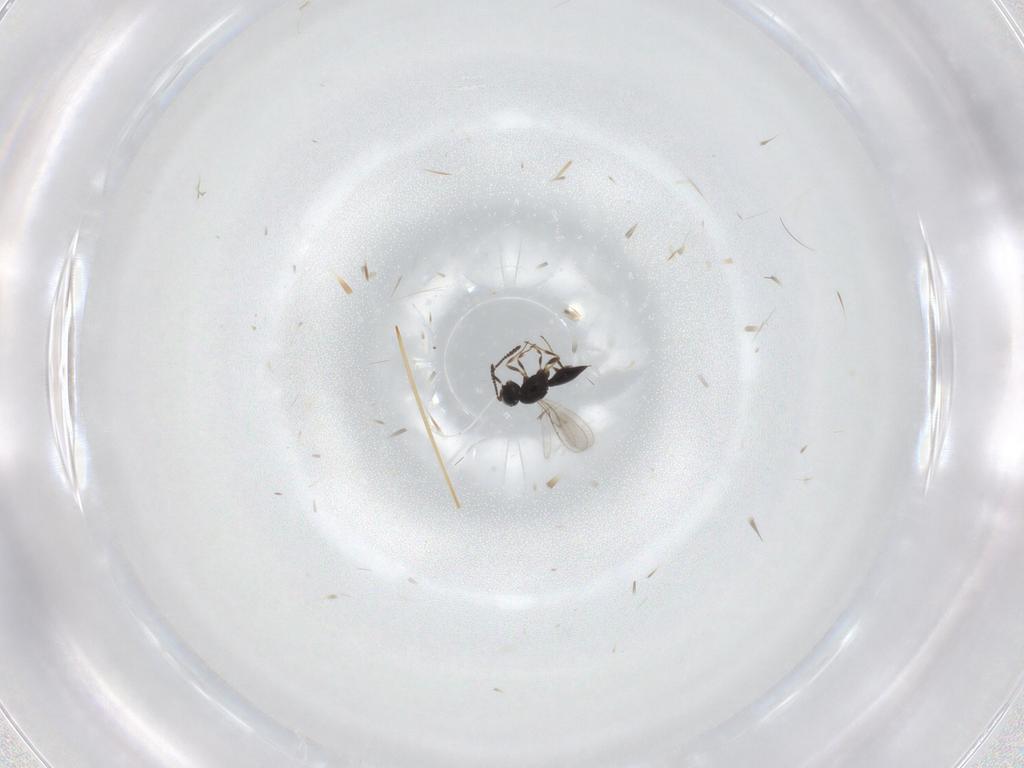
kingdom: Animalia
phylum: Arthropoda
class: Insecta
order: Hymenoptera
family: Scelionidae
